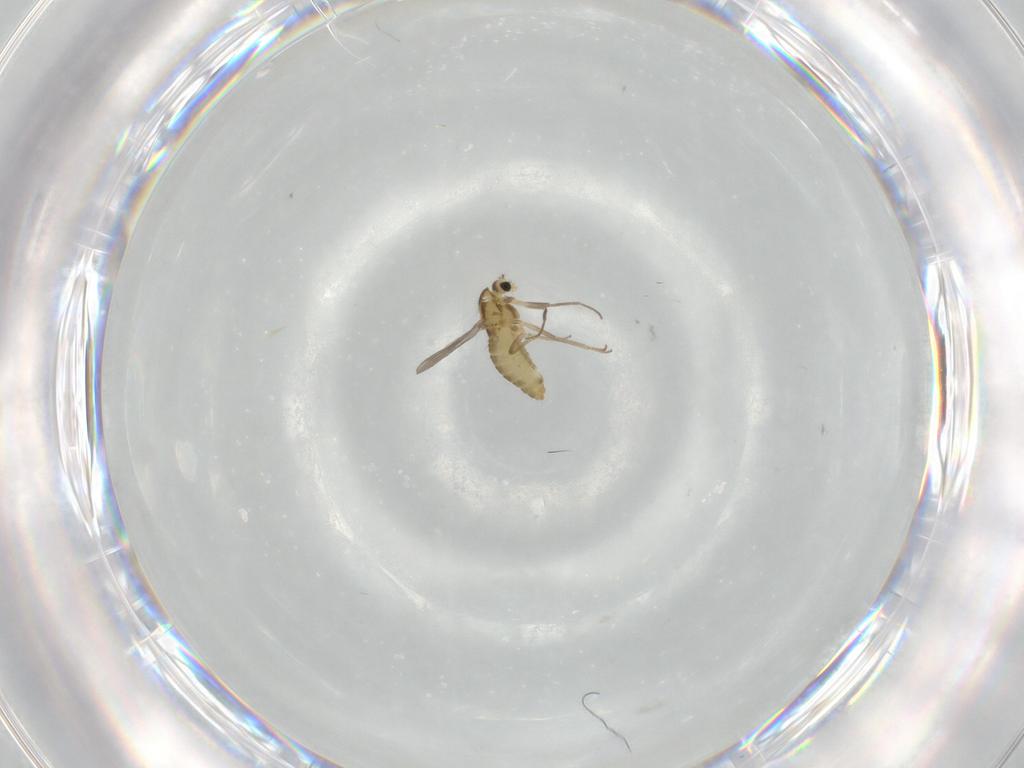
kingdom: Animalia
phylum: Arthropoda
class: Insecta
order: Diptera
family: Chironomidae
